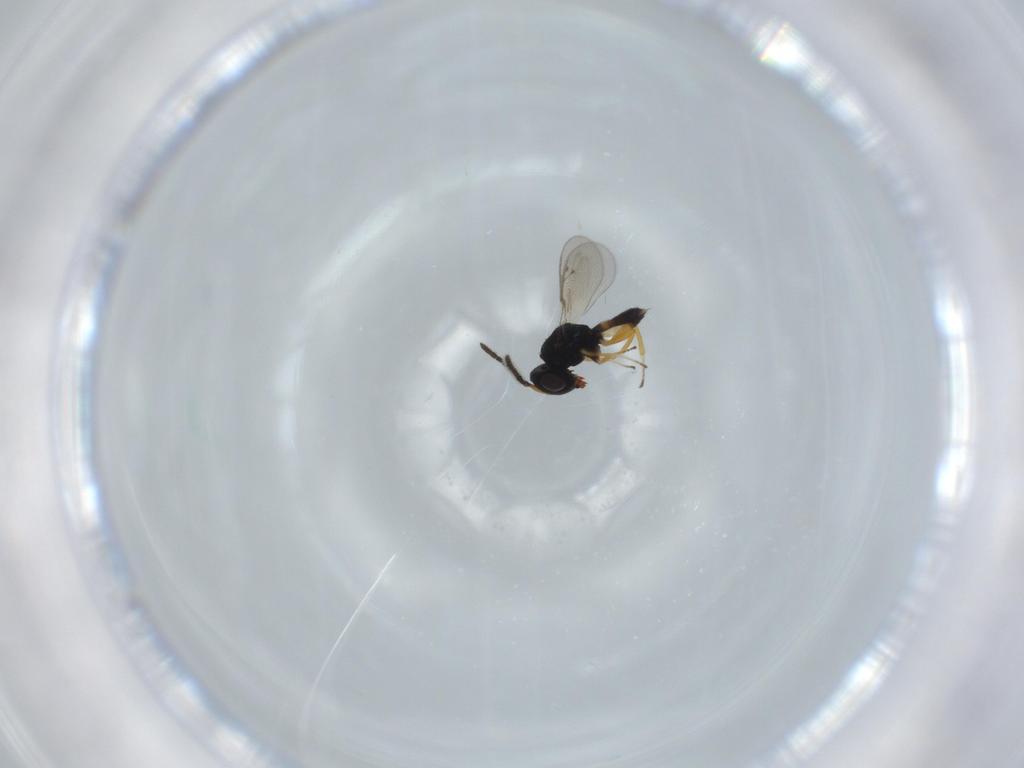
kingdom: Animalia
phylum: Arthropoda
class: Insecta
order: Hymenoptera
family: Pteromalidae
